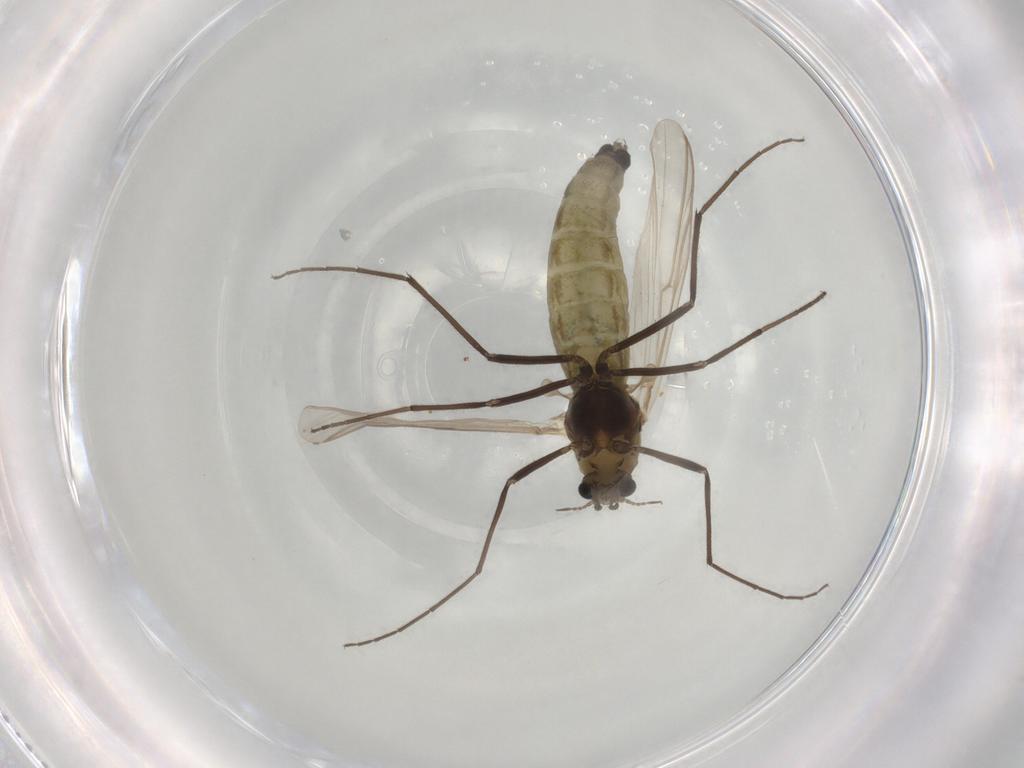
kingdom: Animalia
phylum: Arthropoda
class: Insecta
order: Diptera
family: Chironomidae
